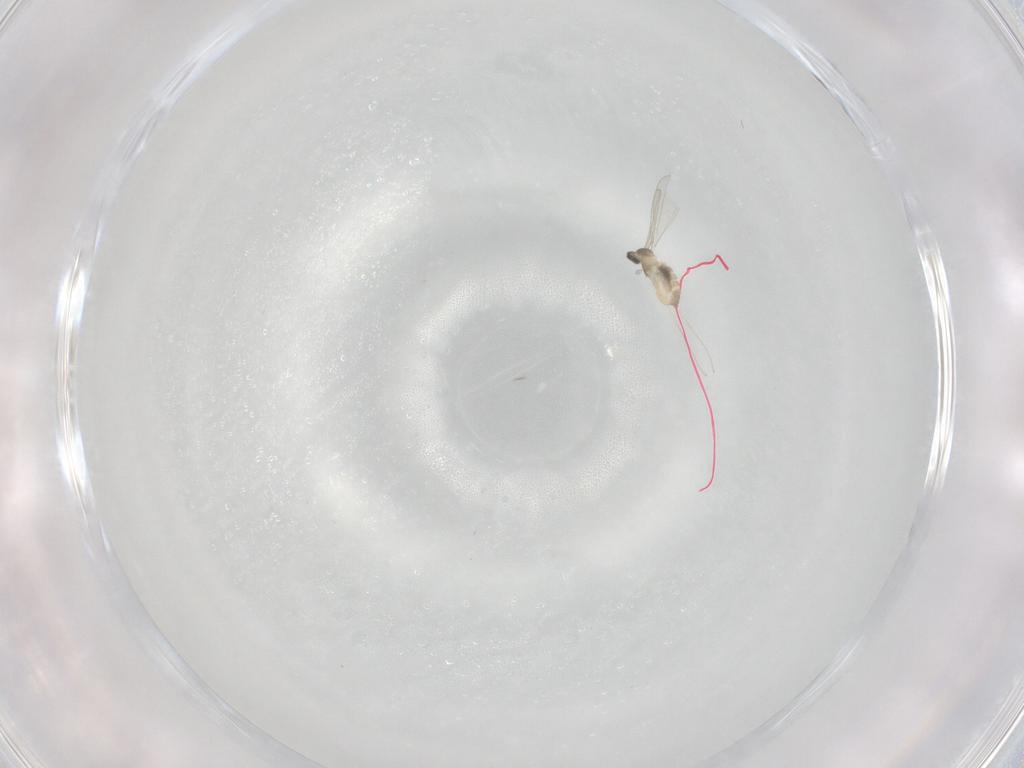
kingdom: Animalia
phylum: Arthropoda
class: Insecta
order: Diptera
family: Cecidomyiidae
